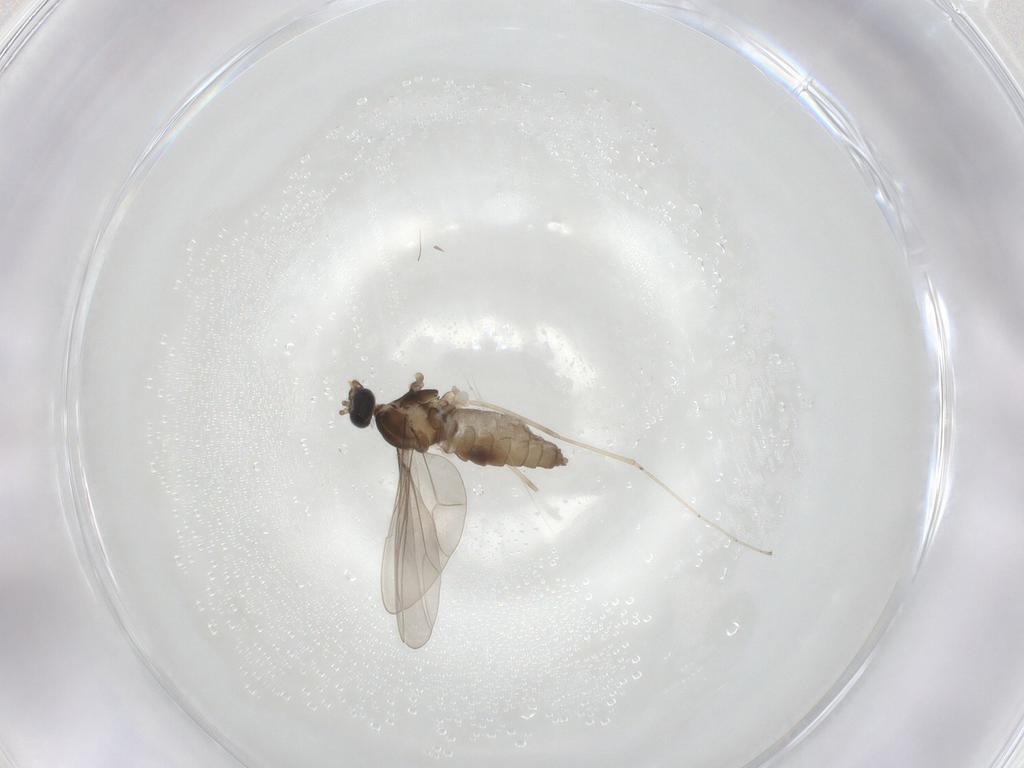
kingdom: Animalia
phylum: Arthropoda
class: Insecta
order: Diptera
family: Cecidomyiidae
